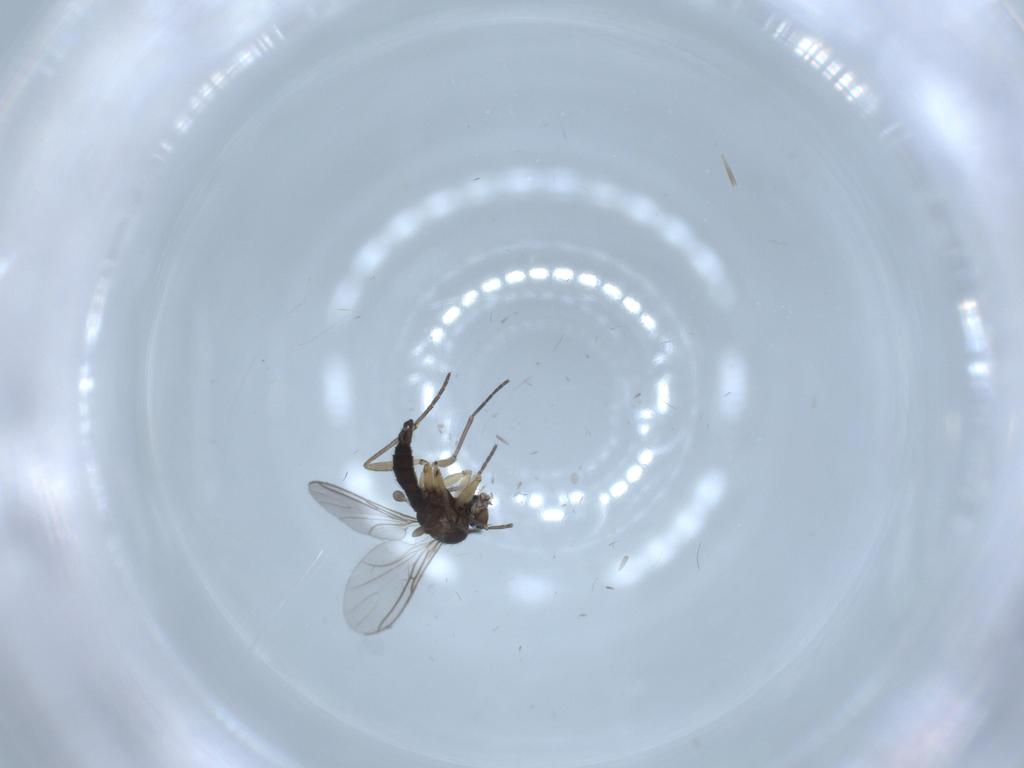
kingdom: Animalia
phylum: Arthropoda
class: Insecta
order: Diptera
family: Sciaridae
